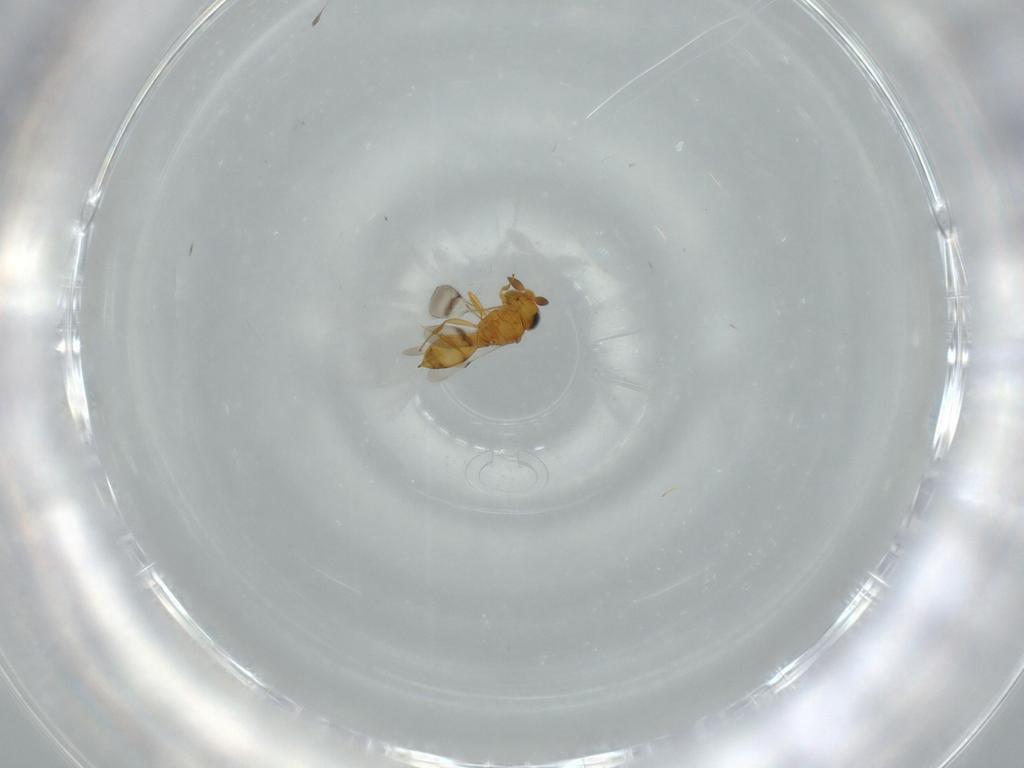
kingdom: Animalia
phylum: Arthropoda
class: Insecta
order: Hymenoptera
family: Scelionidae
